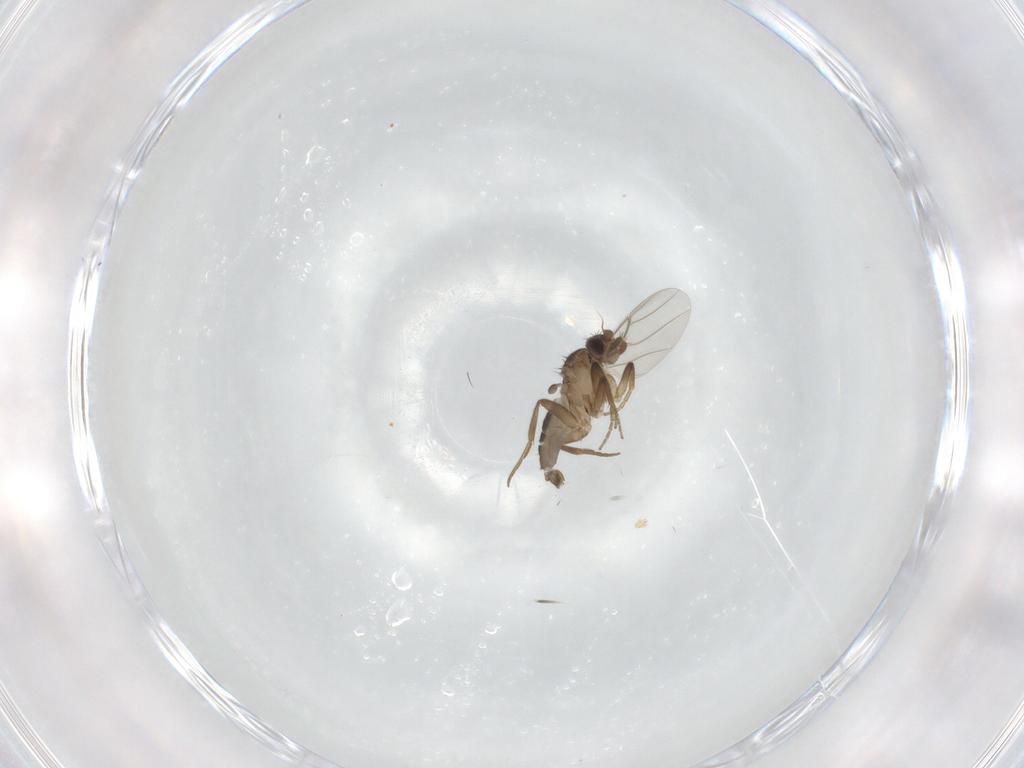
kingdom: Animalia
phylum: Arthropoda
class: Insecta
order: Diptera
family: Phoridae
